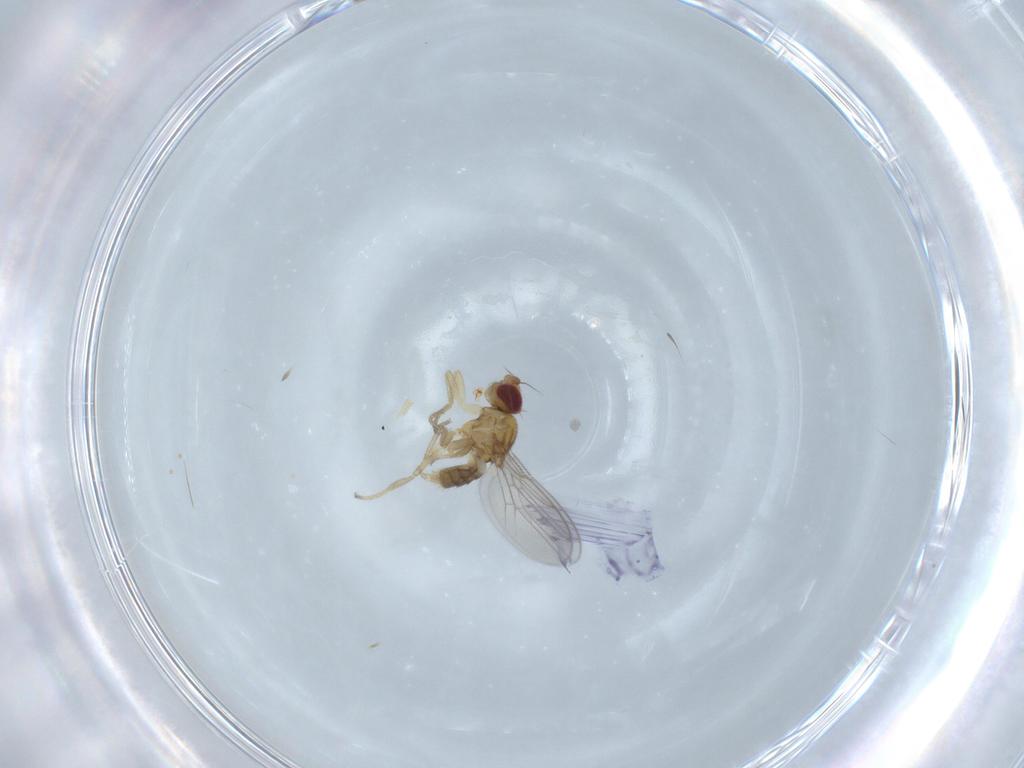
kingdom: Animalia
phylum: Arthropoda
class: Insecta
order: Diptera
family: Chloropidae
